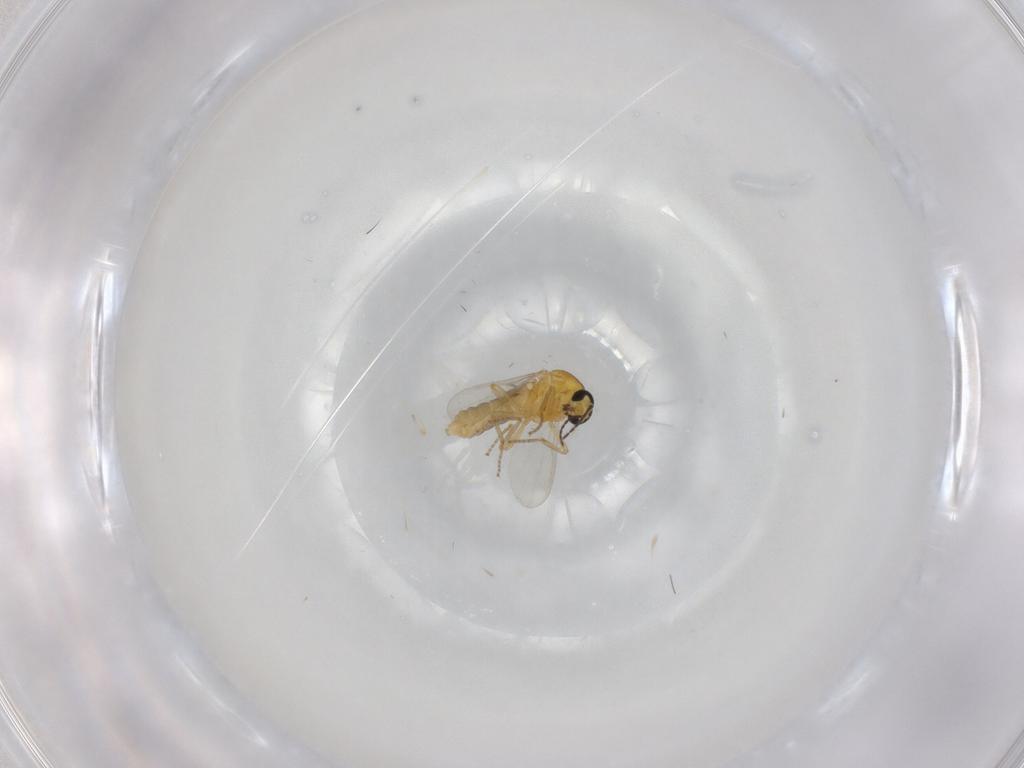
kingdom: Animalia
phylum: Arthropoda
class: Insecta
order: Diptera
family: Ceratopogonidae
